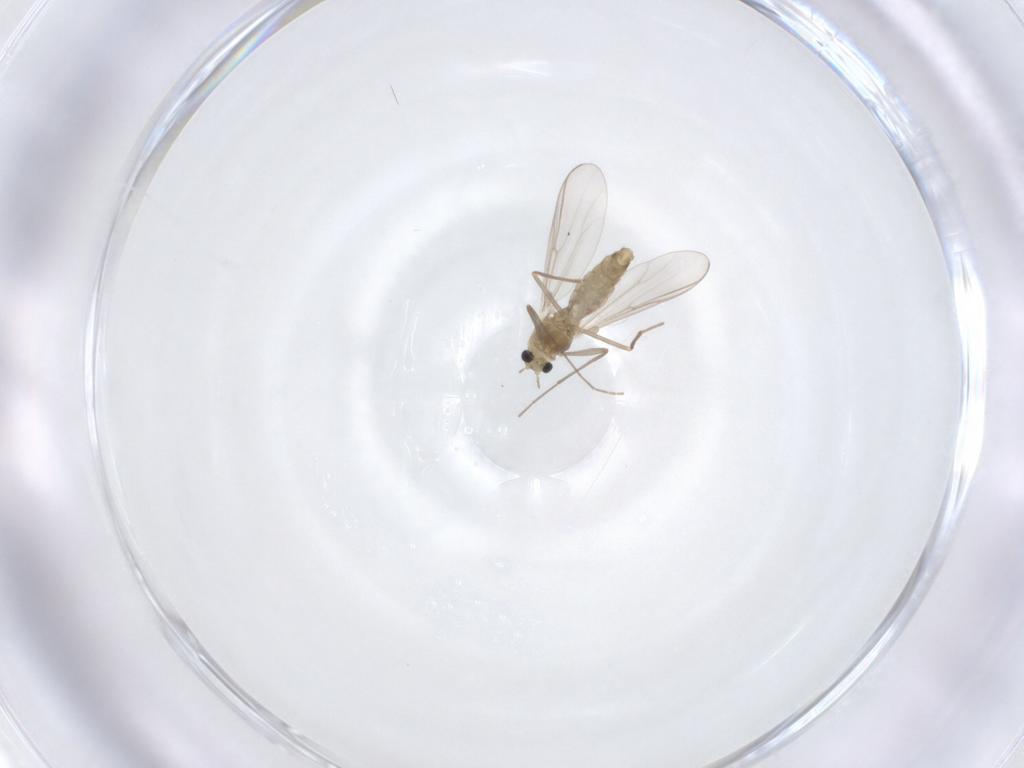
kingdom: Animalia
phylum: Arthropoda
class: Insecta
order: Diptera
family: Chironomidae
